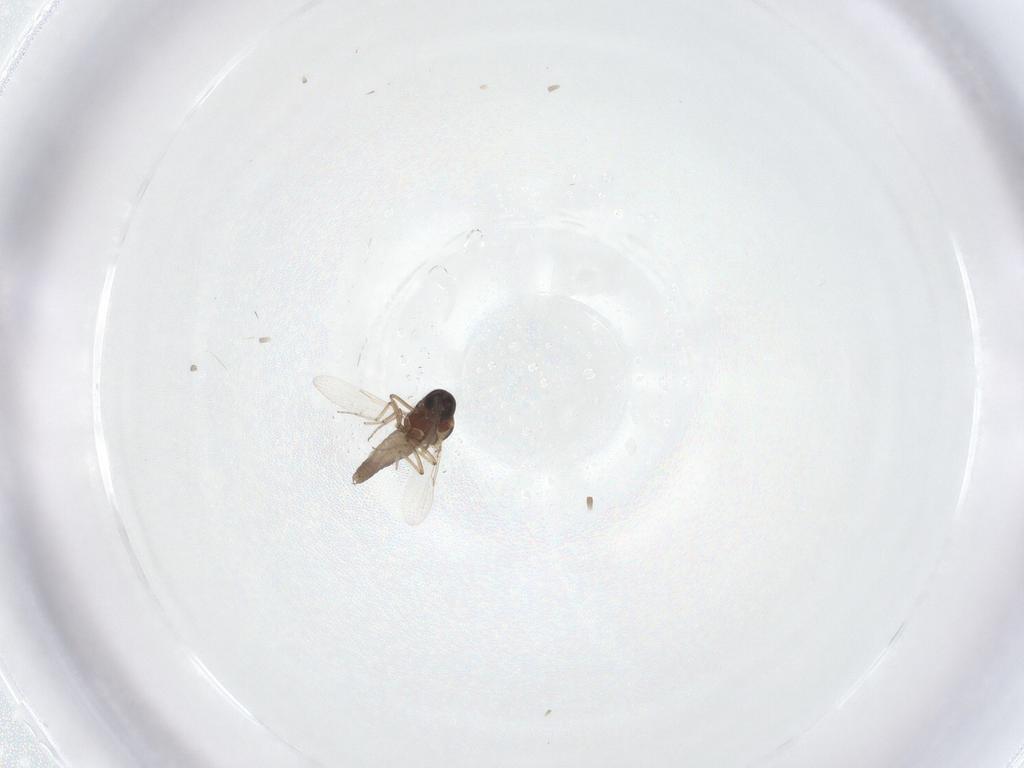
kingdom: Animalia
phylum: Arthropoda
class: Insecta
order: Diptera
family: Ceratopogonidae
